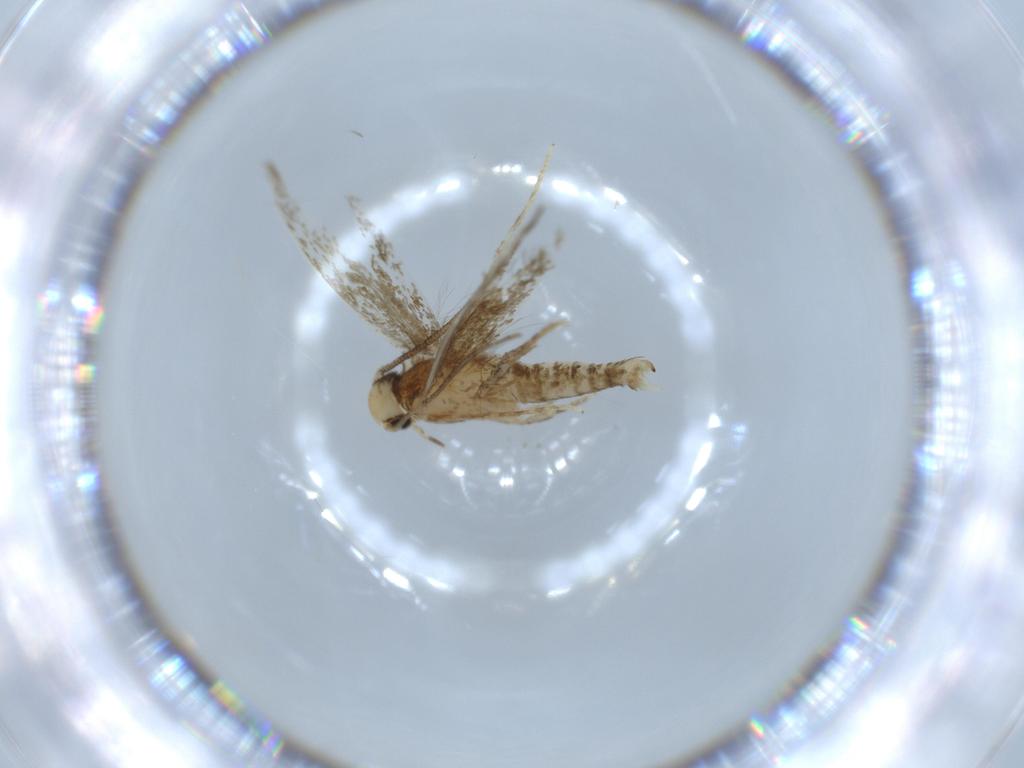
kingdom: Animalia
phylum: Arthropoda
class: Insecta
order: Lepidoptera
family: Tineidae
